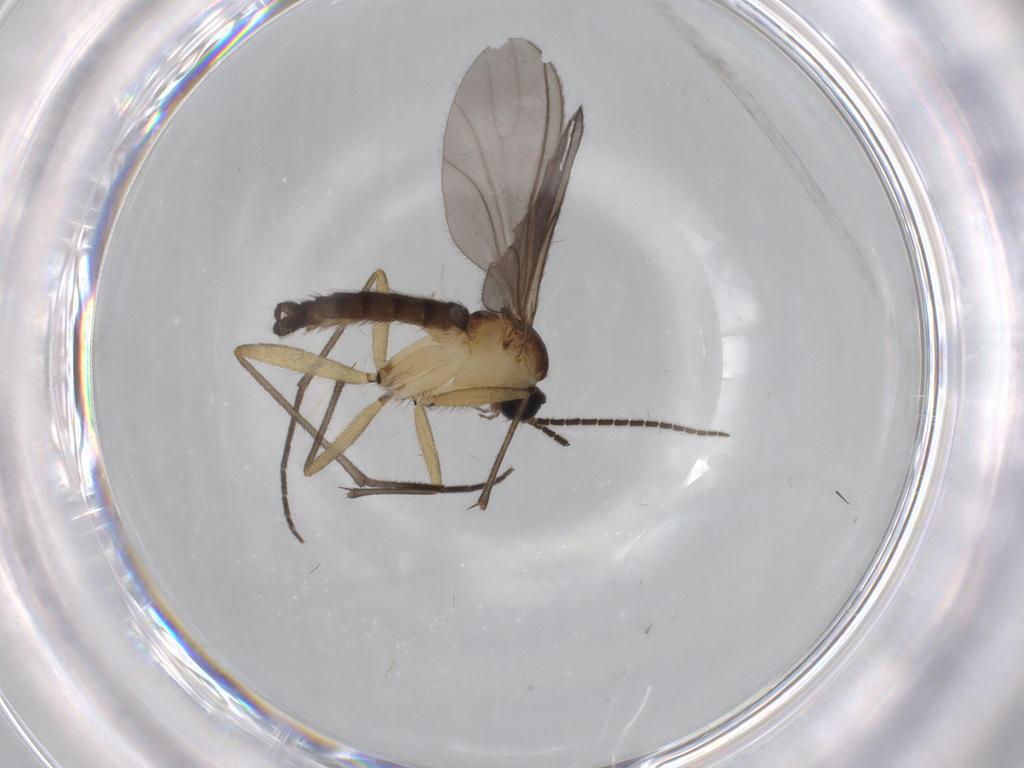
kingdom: Animalia
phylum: Arthropoda
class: Insecta
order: Diptera
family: Sciaridae
